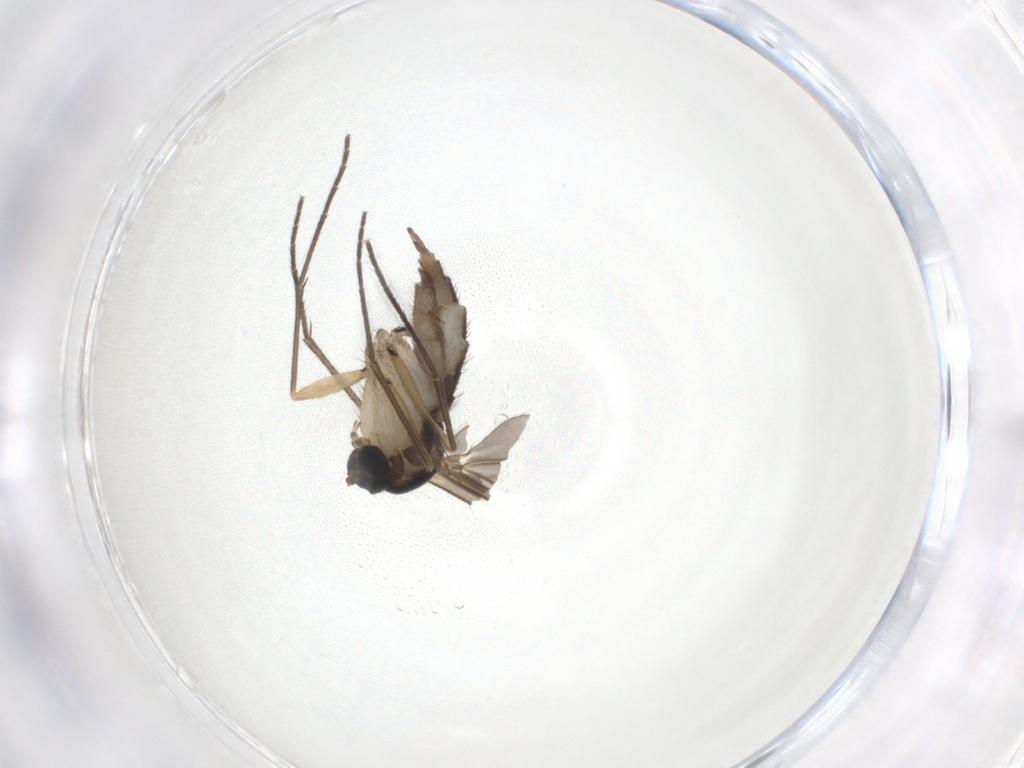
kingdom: Animalia
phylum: Arthropoda
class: Insecta
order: Diptera
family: Sciaridae
